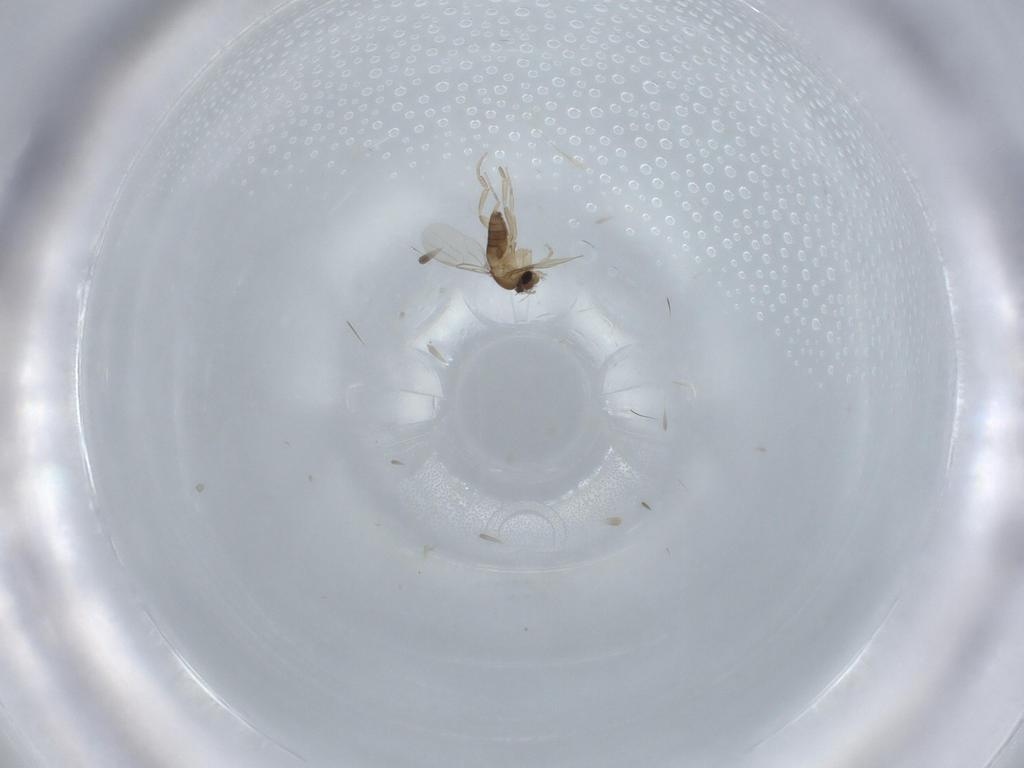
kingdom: Animalia
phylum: Arthropoda
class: Insecta
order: Diptera
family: Phoridae
